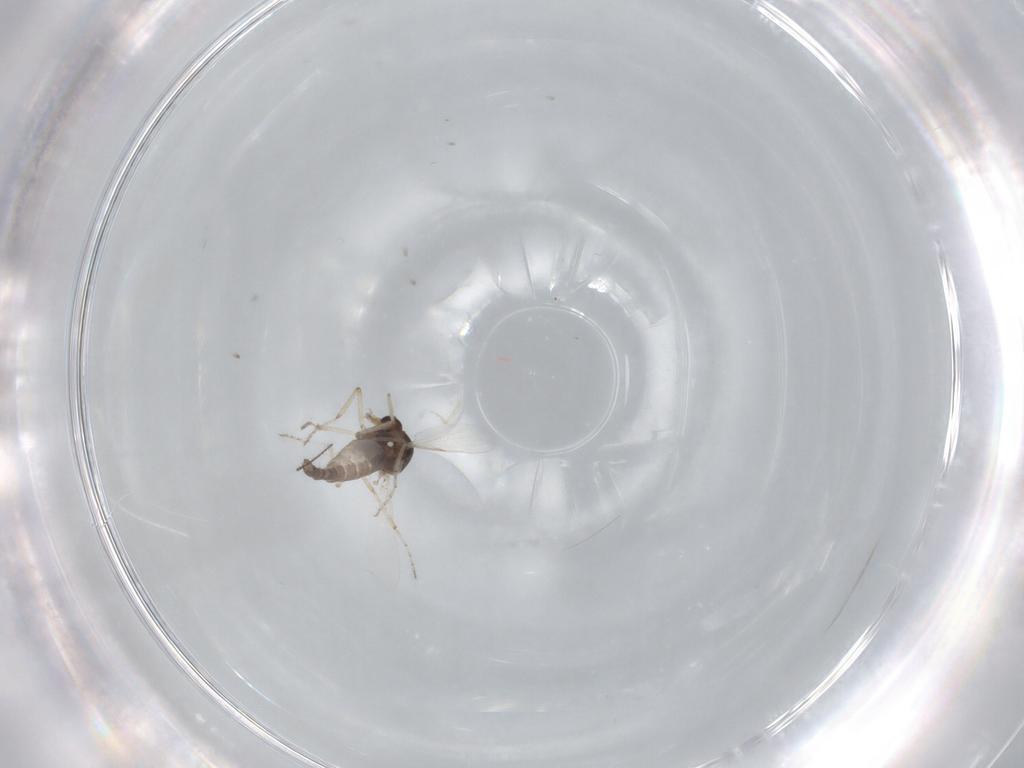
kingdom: Animalia
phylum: Arthropoda
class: Insecta
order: Diptera
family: Ceratopogonidae
